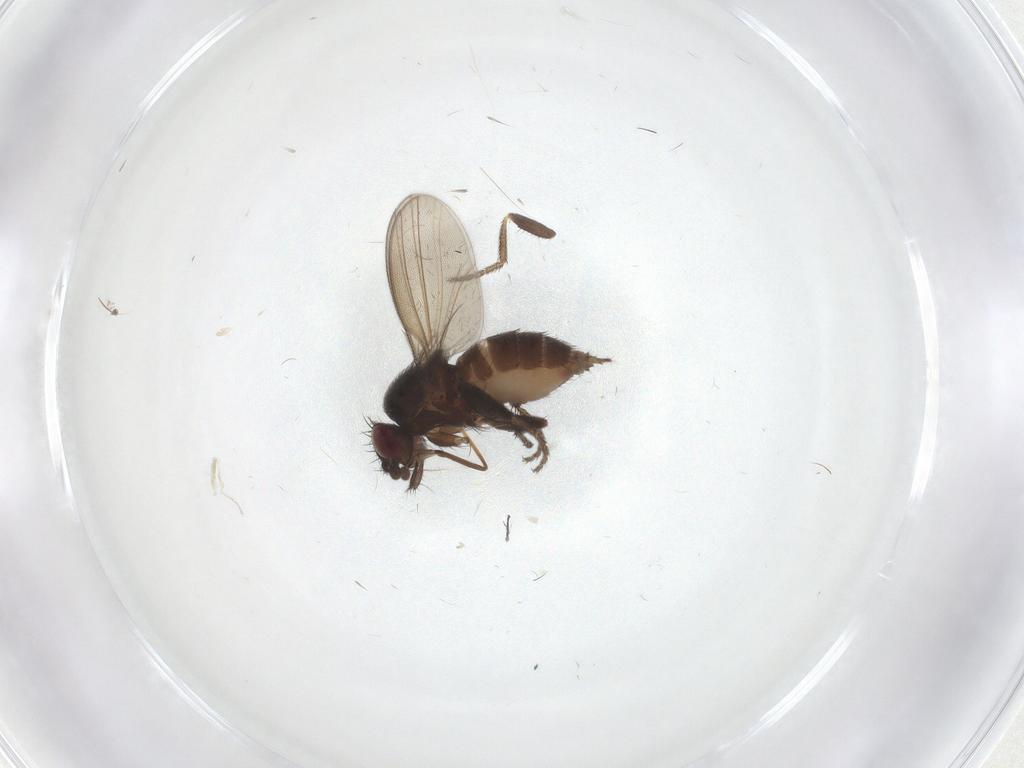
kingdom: Animalia
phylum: Arthropoda
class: Insecta
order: Diptera
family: Milichiidae
